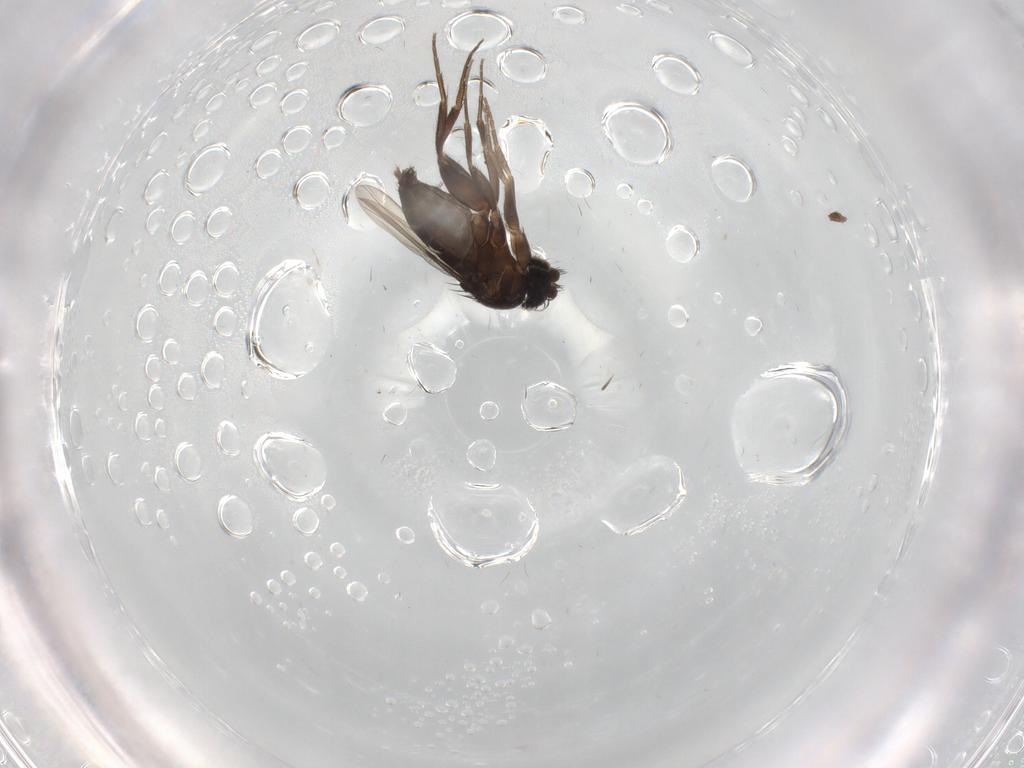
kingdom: Animalia
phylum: Arthropoda
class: Insecta
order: Diptera
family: Phoridae
